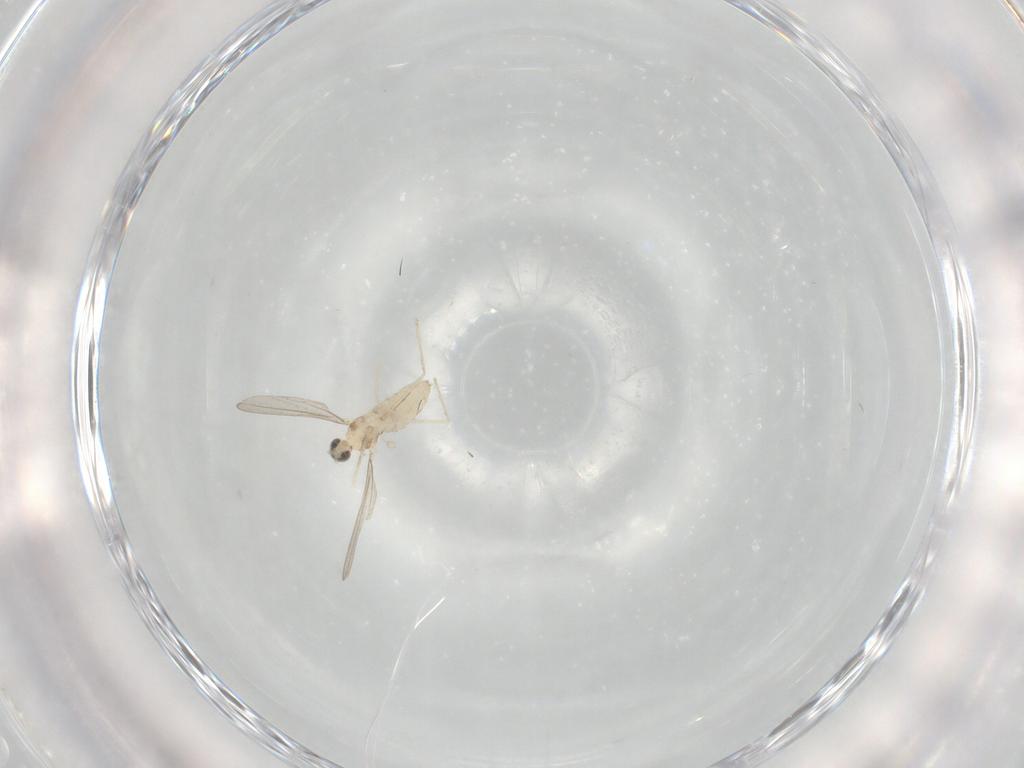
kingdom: Animalia
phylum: Arthropoda
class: Insecta
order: Diptera
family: Cecidomyiidae
